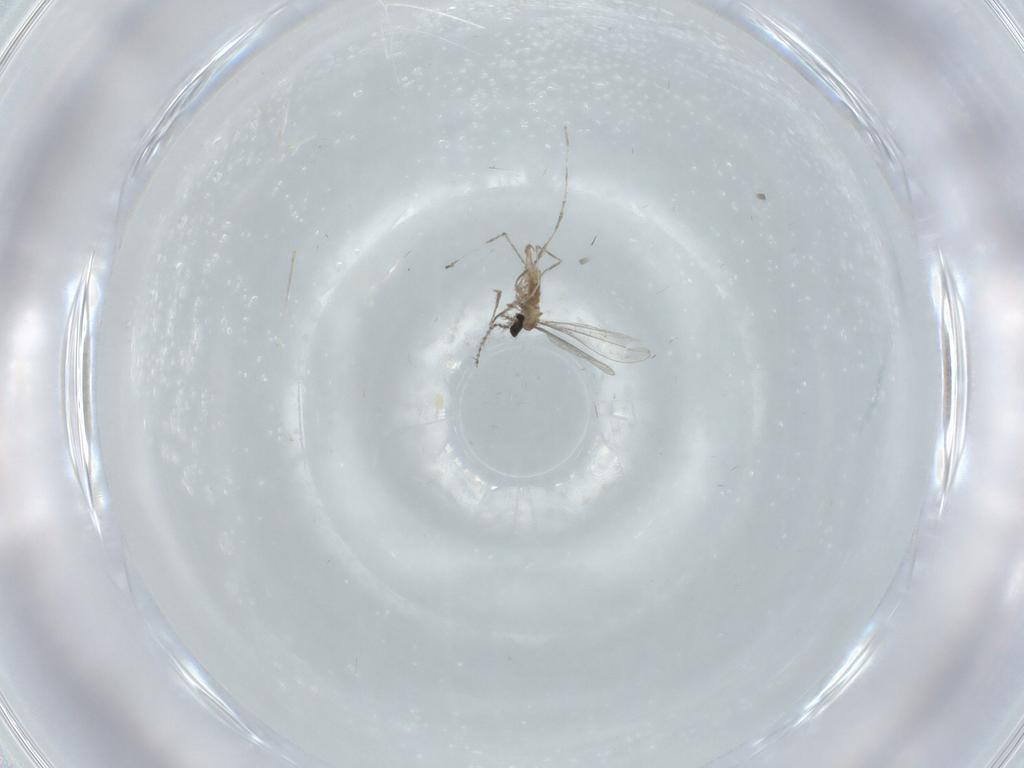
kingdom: Animalia
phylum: Arthropoda
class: Insecta
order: Diptera
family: Cecidomyiidae
